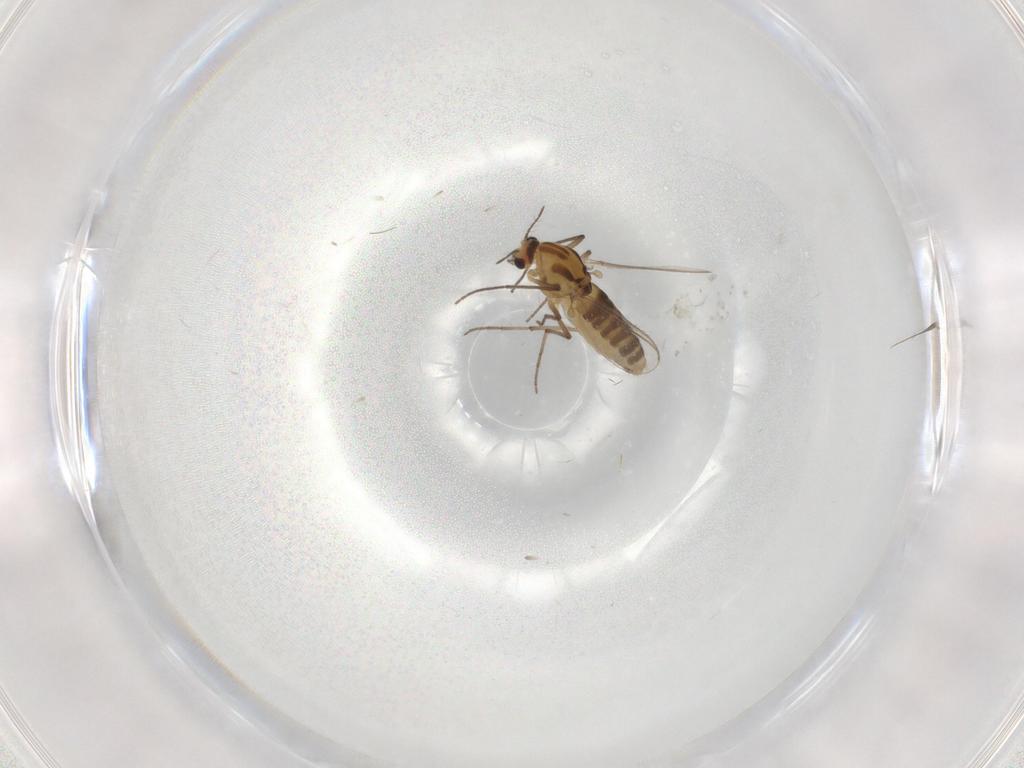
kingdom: Animalia
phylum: Arthropoda
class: Insecta
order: Diptera
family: Chironomidae
